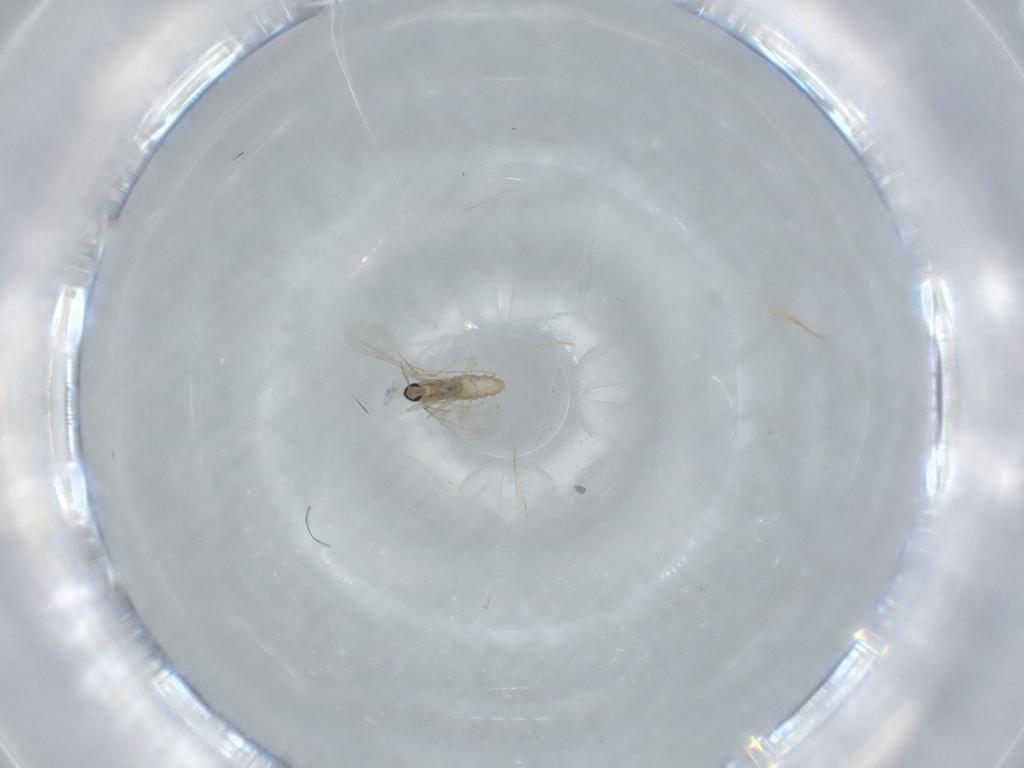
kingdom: Animalia
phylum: Arthropoda
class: Insecta
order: Diptera
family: Cecidomyiidae
